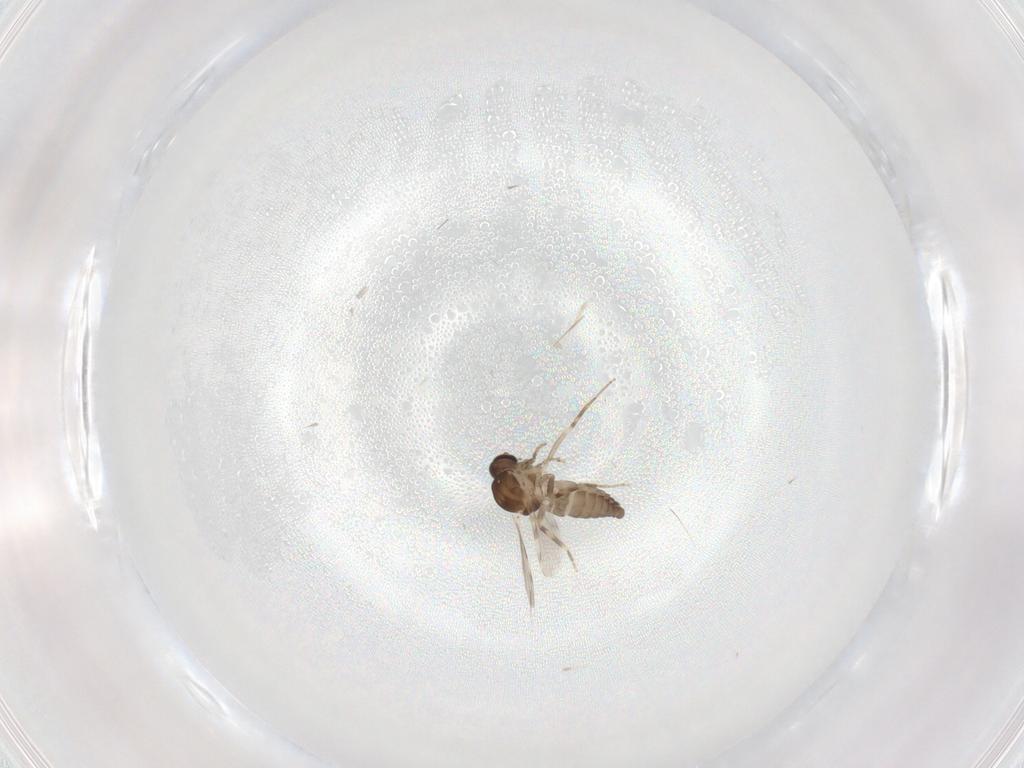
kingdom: Animalia
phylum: Arthropoda
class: Insecta
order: Diptera
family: Ceratopogonidae
